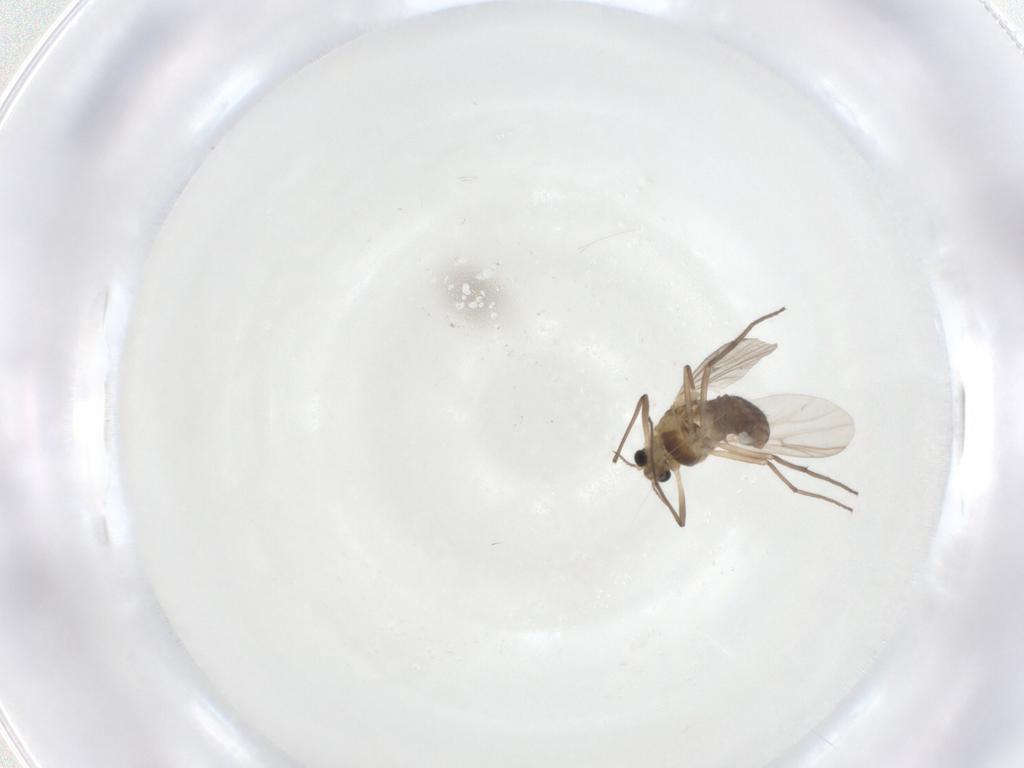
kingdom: Animalia
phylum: Arthropoda
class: Insecta
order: Diptera
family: Chironomidae
